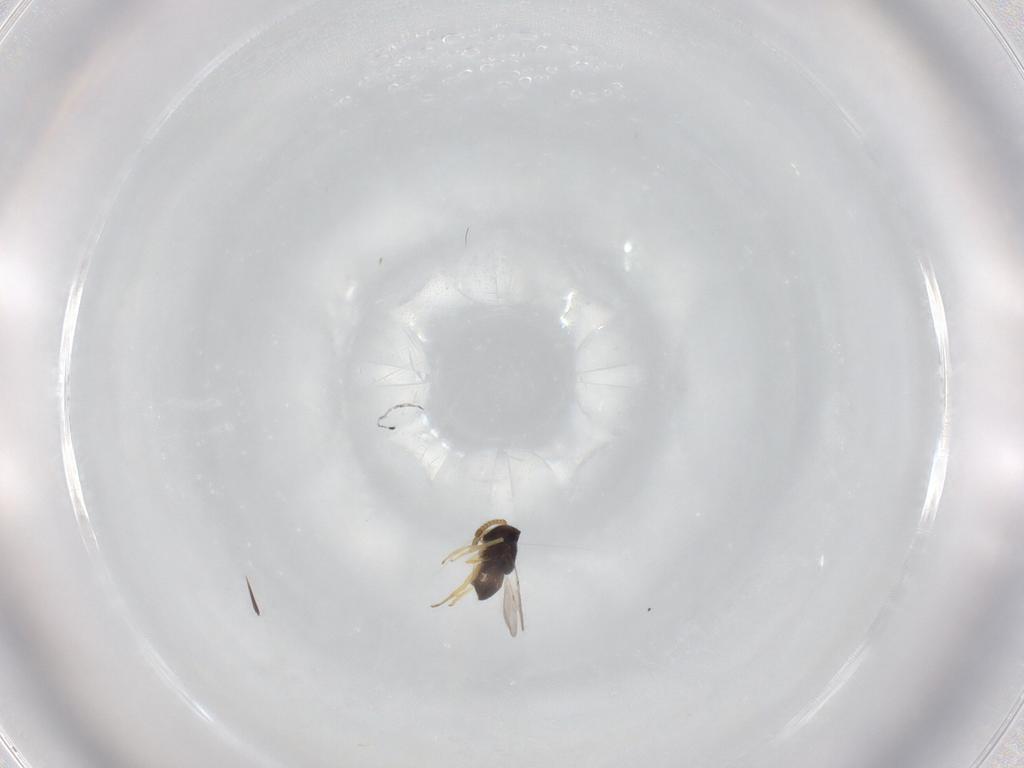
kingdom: Animalia
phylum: Arthropoda
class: Insecta
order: Hymenoptera
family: Encyrtidae
